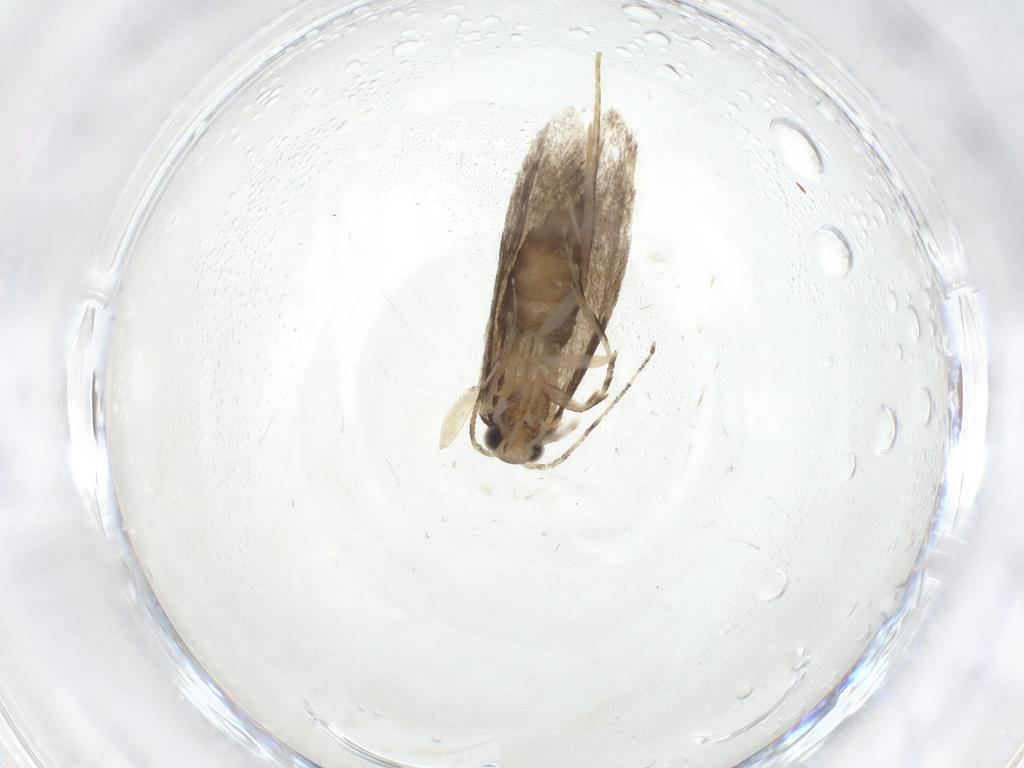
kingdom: Animalia
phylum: Arthropoda
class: Insecta
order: Lepidoptera
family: Tineidae
